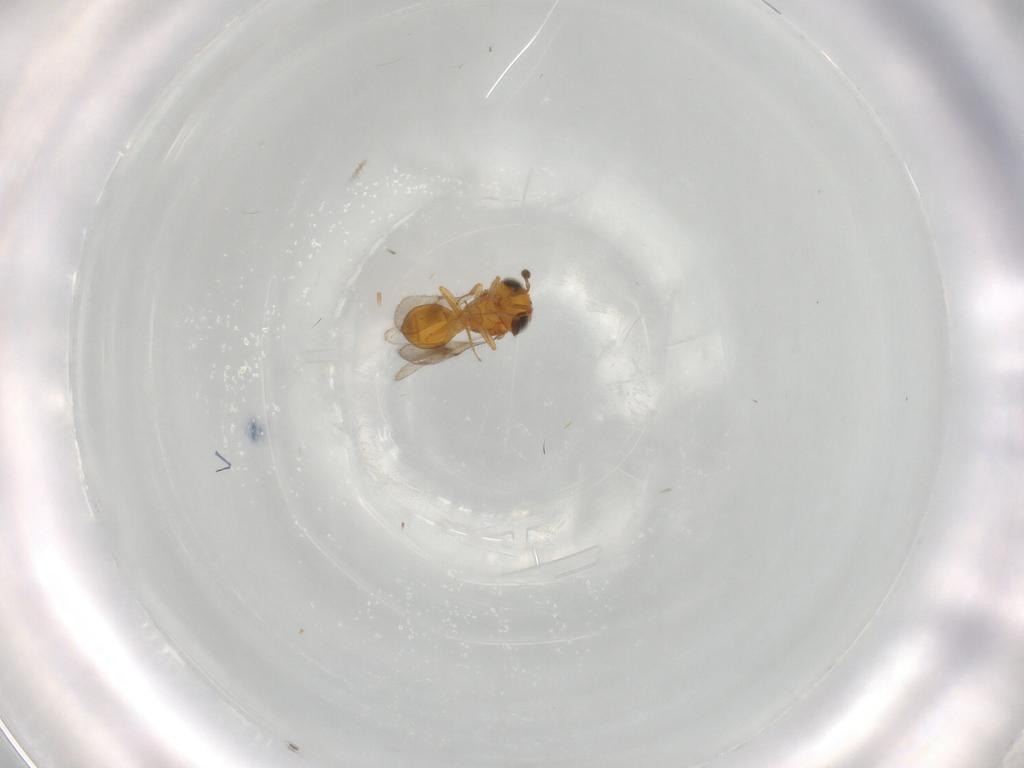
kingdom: Animalia
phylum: Arthropoda
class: Insecta
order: Hymenoptera
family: Scelionidae
